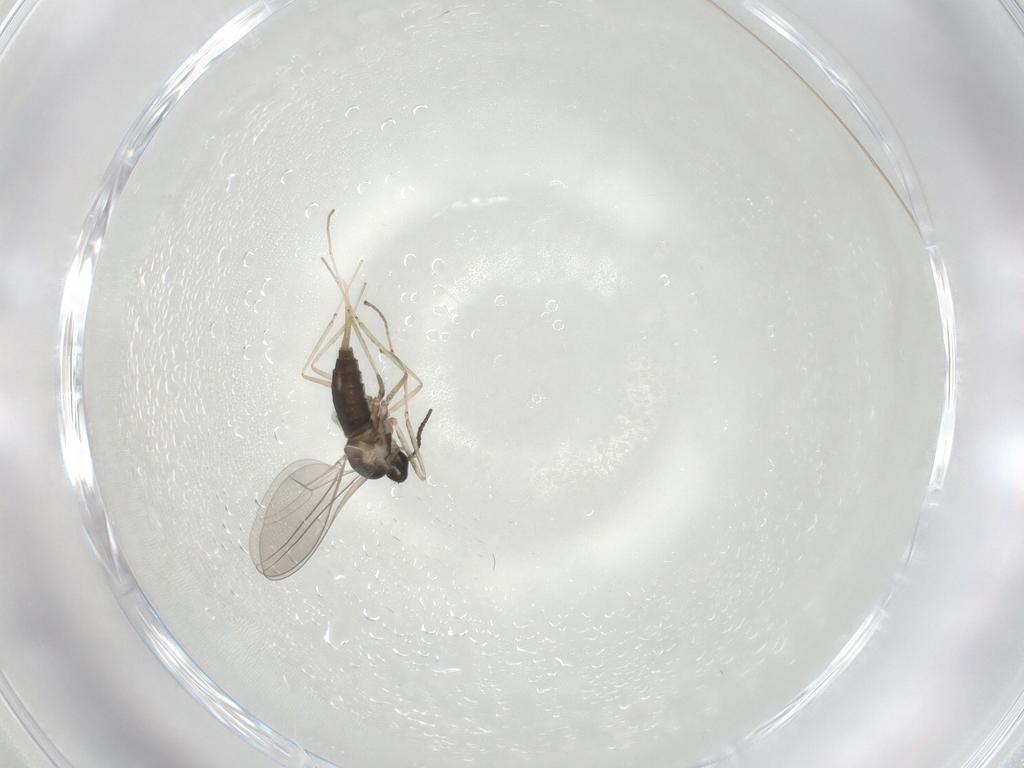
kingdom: Animalia
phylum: Arthropoda
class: Insecta
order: Diptera
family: Cecidomyiidae
